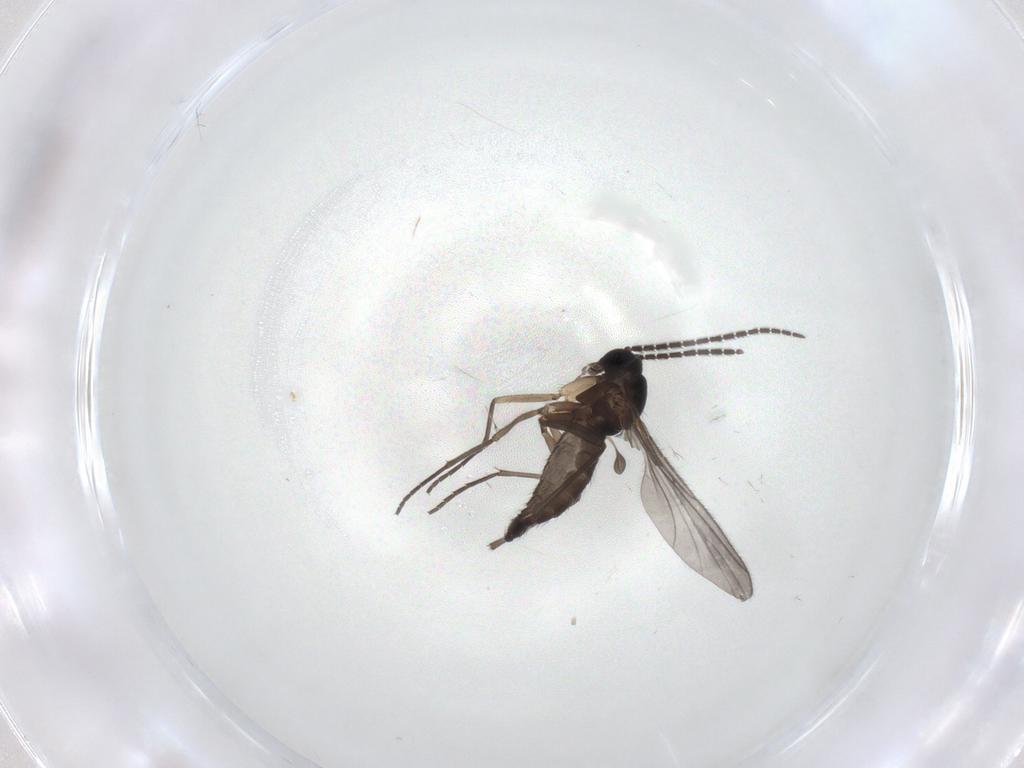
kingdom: Animalia
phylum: Arthropoda
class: Insecta
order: Diptera
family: Sciaridae
